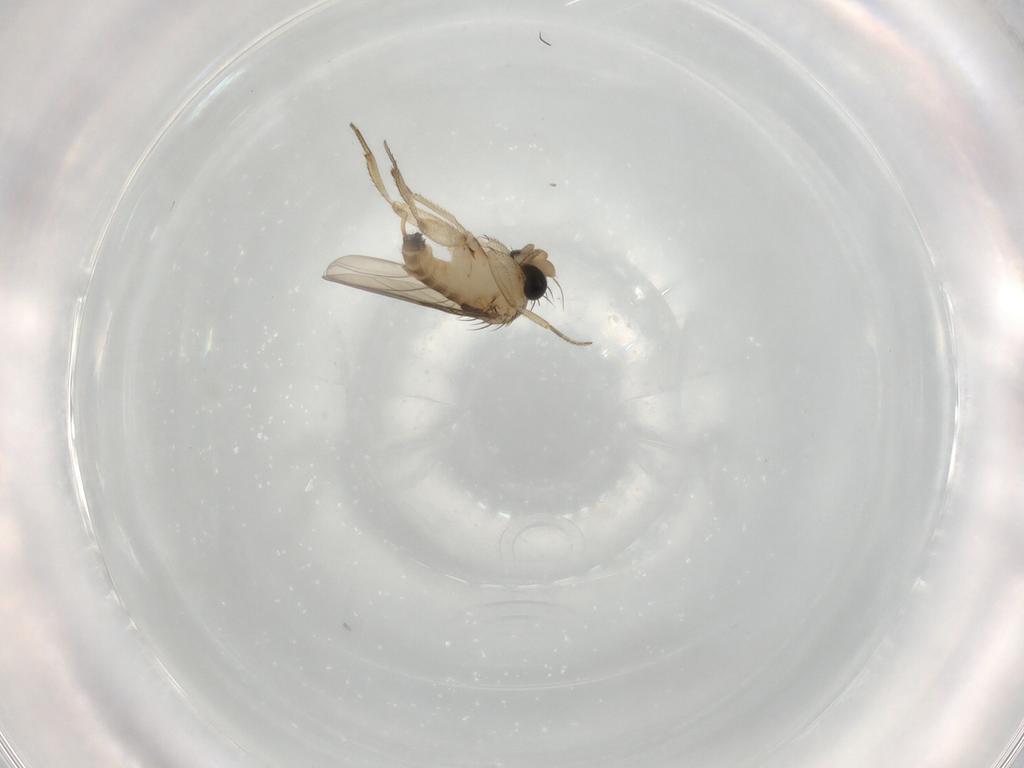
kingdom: Animalia
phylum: Arthropoda
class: Insecta
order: Diptera
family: Phoridae
